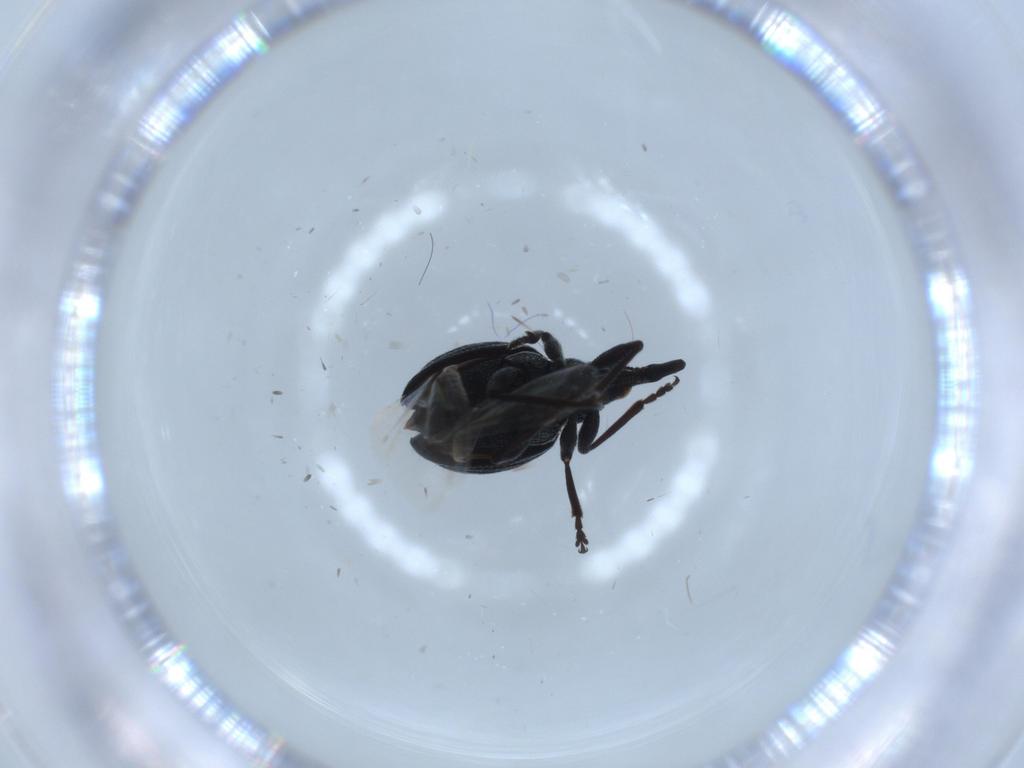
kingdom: Animalia
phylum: Arthropoda
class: Insecta
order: Coleoptera
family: Brentidae
